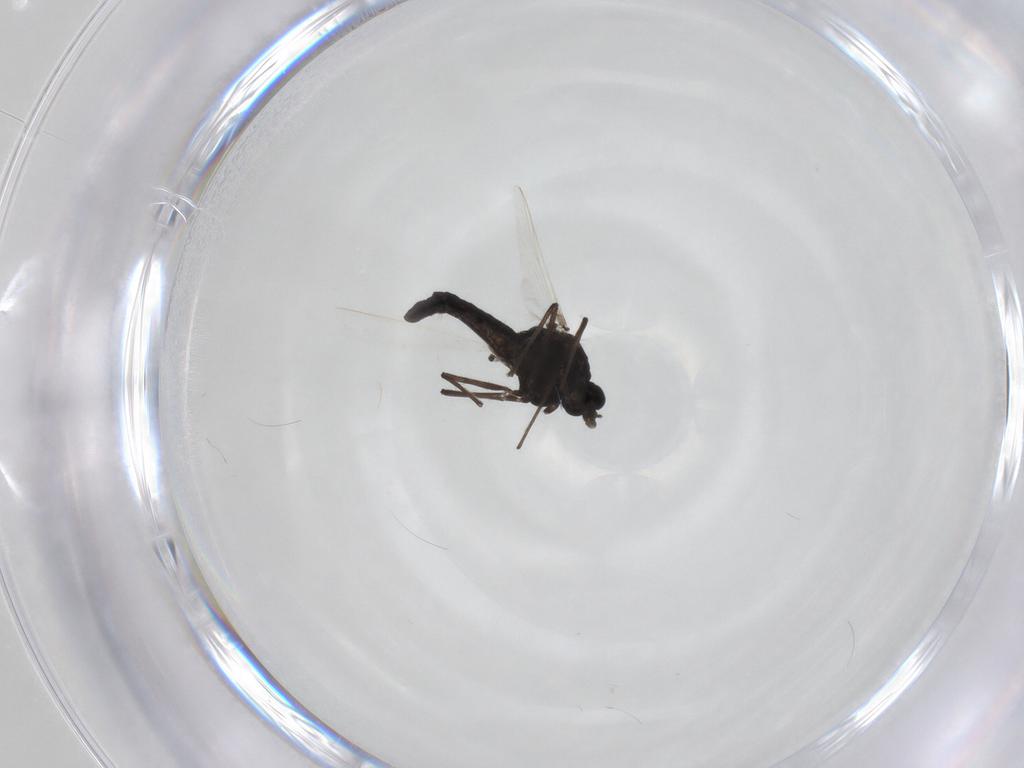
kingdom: Animalia
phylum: Arthropoda
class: Insecta
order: Diptera
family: Chironomidae
